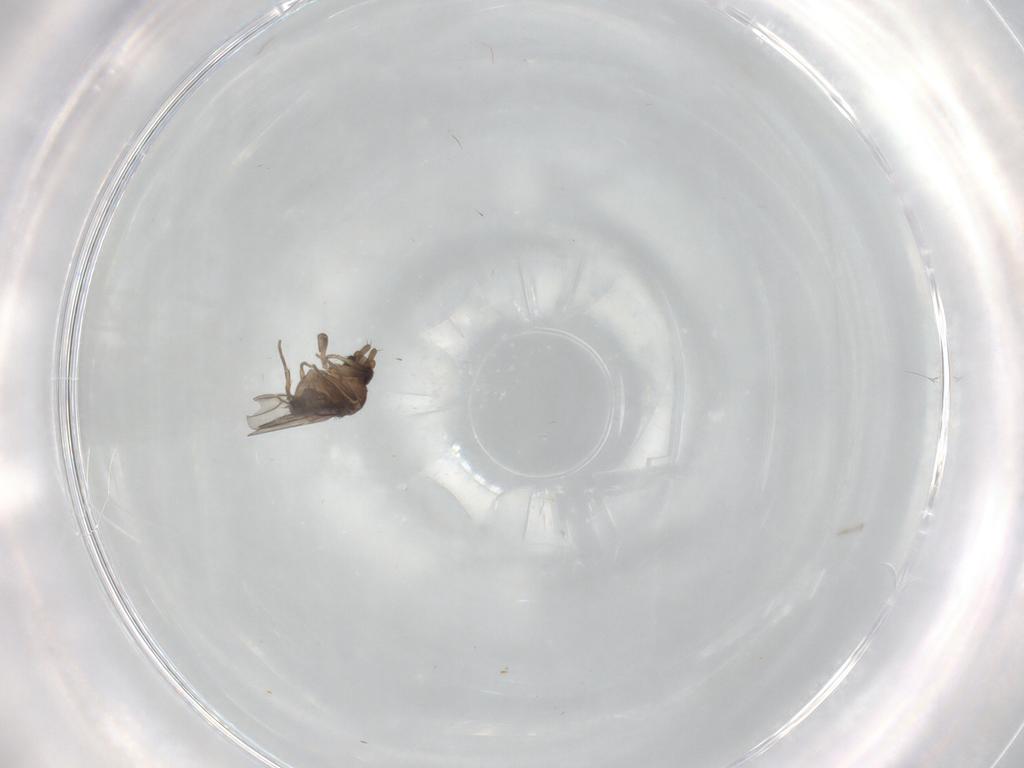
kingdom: Animalia
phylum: Arthropoda
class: Insecta
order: Diptera
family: Phoridae
